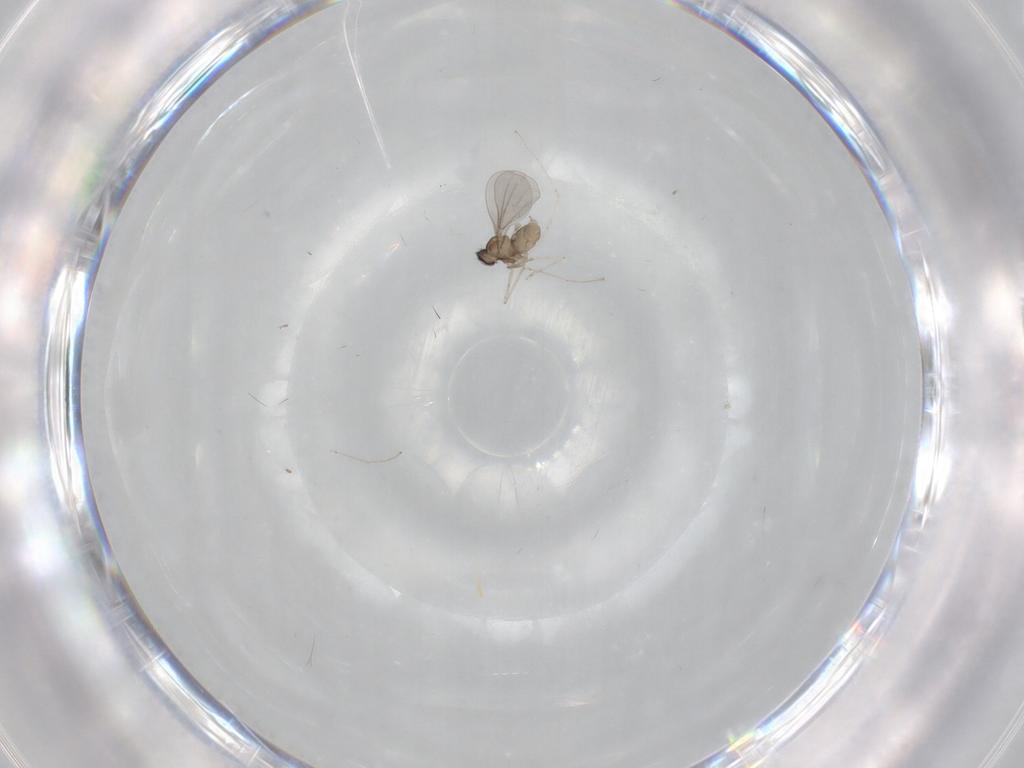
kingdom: Animalia
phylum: Arthropoda
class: Insecta
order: Diptera
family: Phoridae
